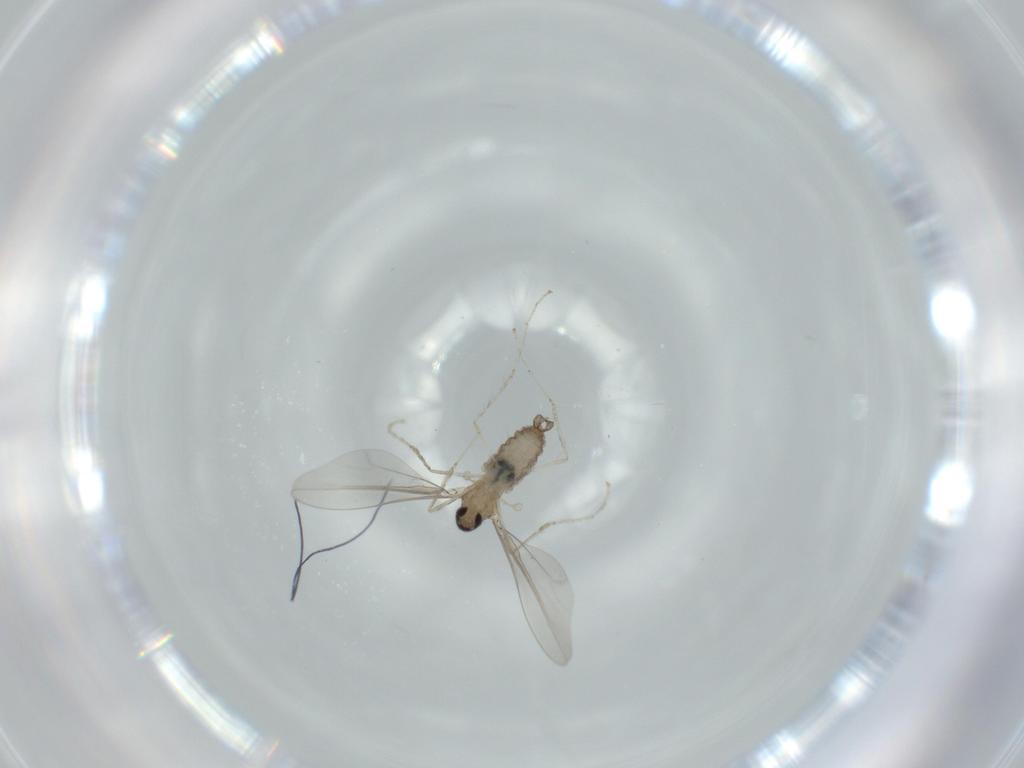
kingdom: Animalia
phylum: Arthropoda
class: Insecta
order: Diptera
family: Cecidomyiidae
